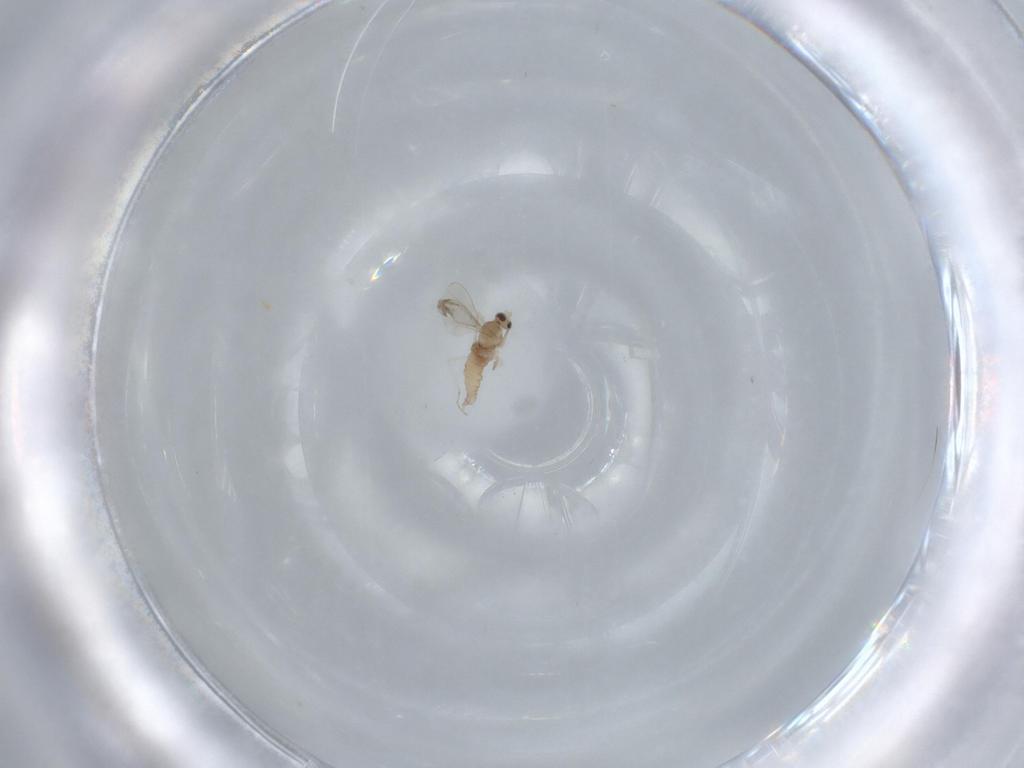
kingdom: Animalia
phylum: Arthropoda
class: Insecta
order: Diptera
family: Cecidomyiidae
